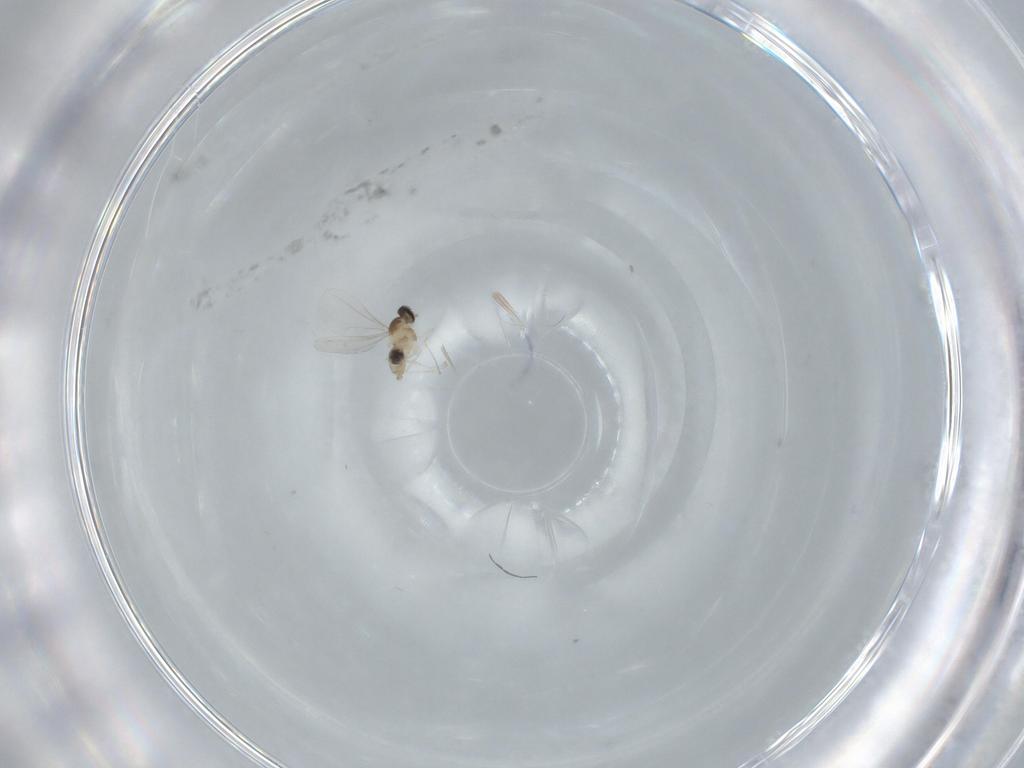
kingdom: Animalia
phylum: Arthropoda
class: Insecta
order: Diptera
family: Cecidomyiidae
